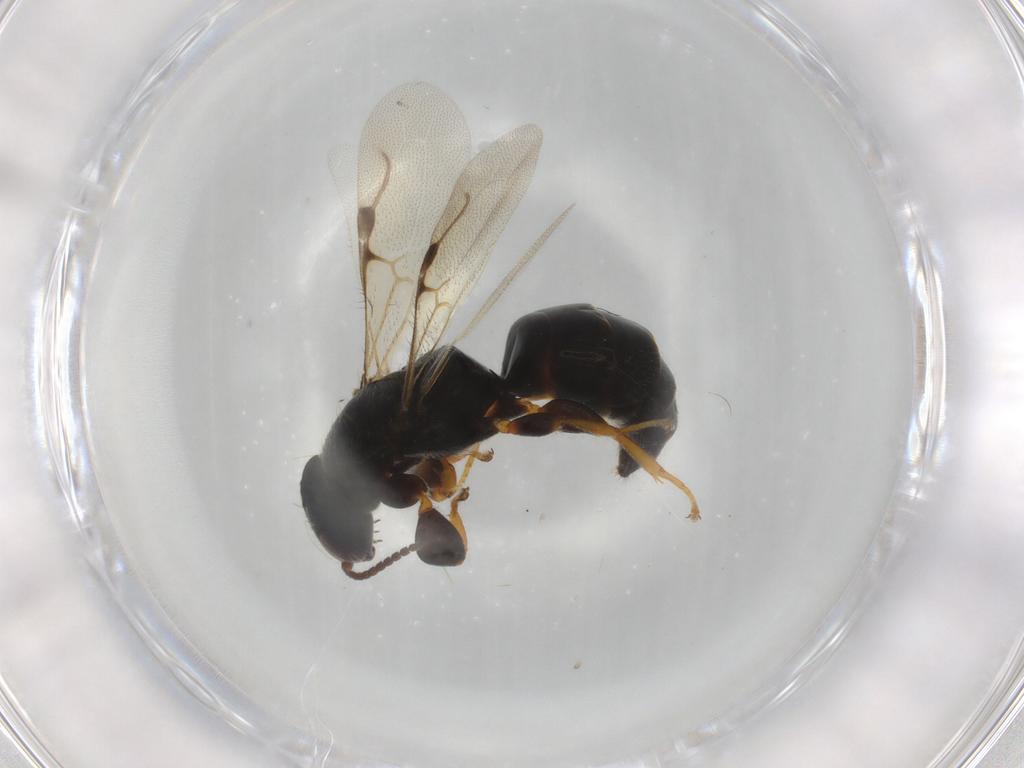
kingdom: Animalia
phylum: Arthropoda
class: Insecta
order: Hymenoptera
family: Bethylidae
